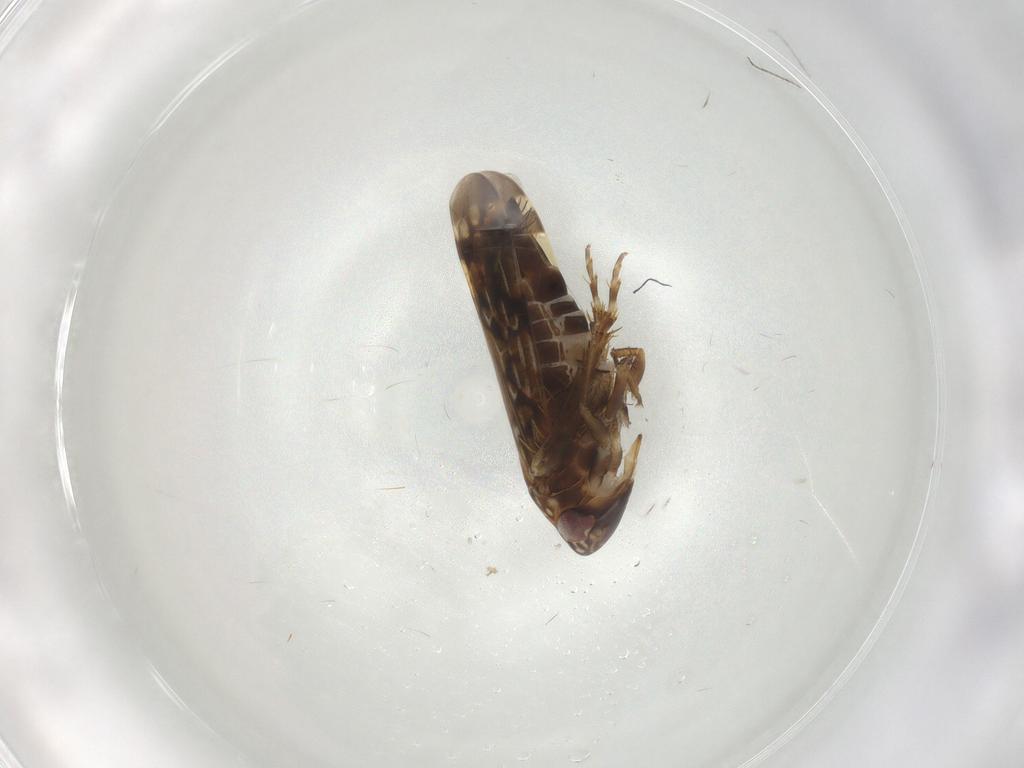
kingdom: Animalia
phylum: Arthropoda
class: Insecta
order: Hemiptera
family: Cicadellidae
